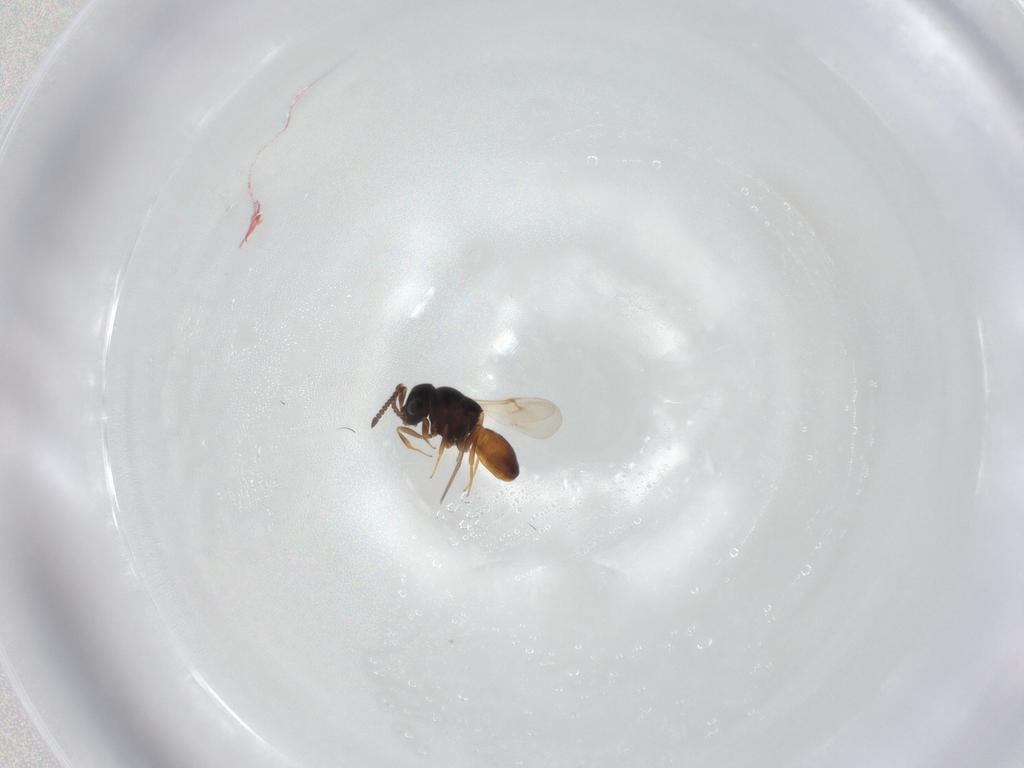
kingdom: Animalia
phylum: Arthropoda
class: Insecta
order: Hymenoptera
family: Scelionidae
